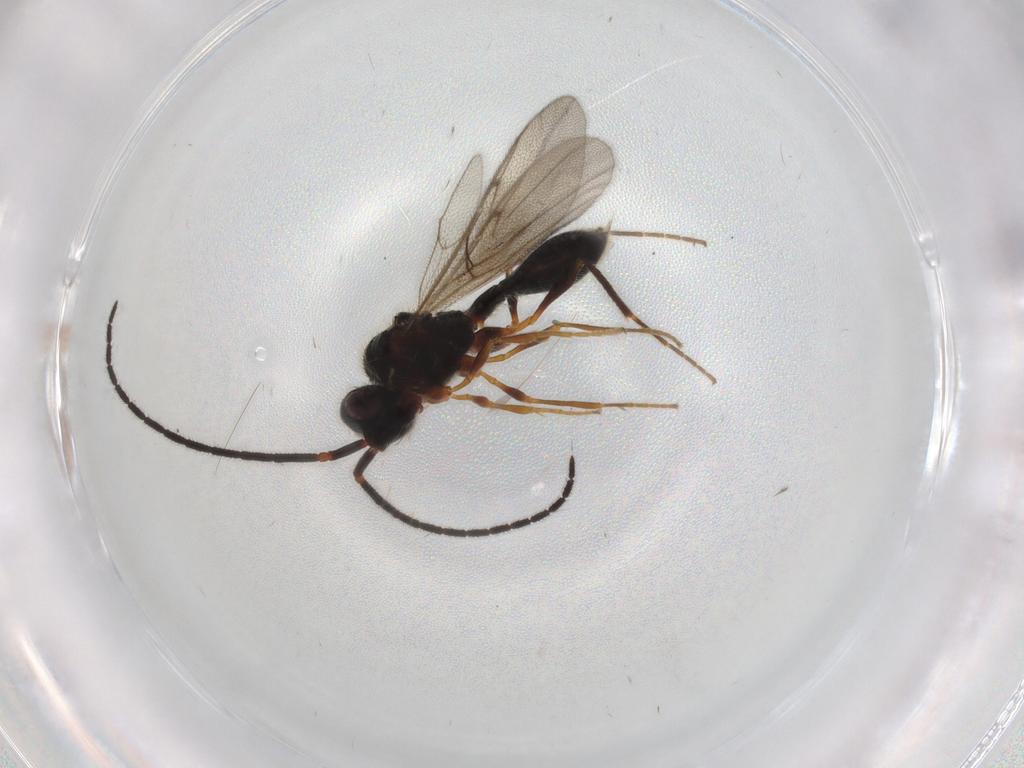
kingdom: Animalia
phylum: Arthropoda
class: Insecta
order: Hymenoptera
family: Diapriidae
